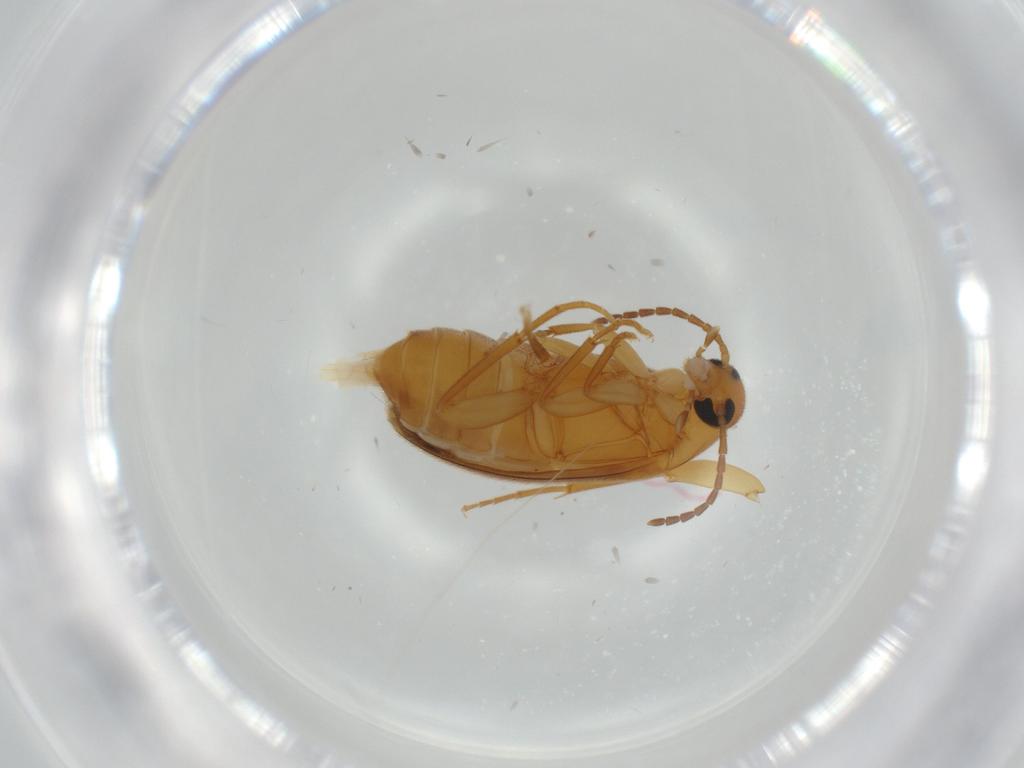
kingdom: Animalia
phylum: Arthropoda
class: Insecta
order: Coleoptera
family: Scraptiidae
